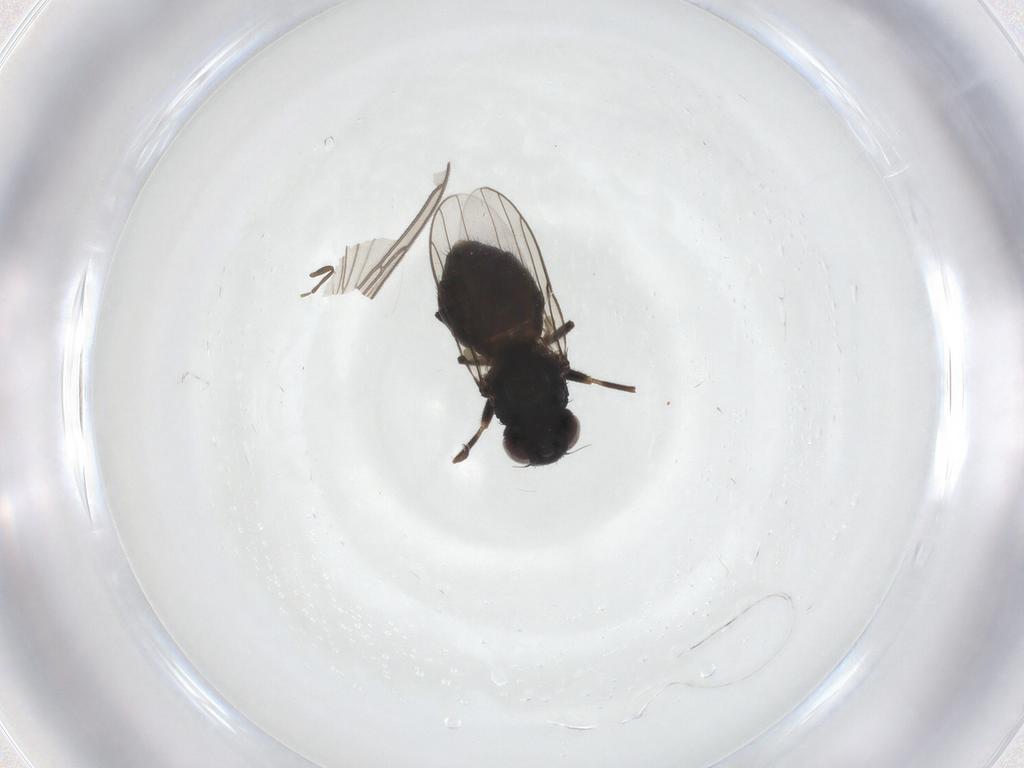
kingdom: Animalia
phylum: Arthropoda
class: Insecta
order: Diptera
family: Chloropidae
